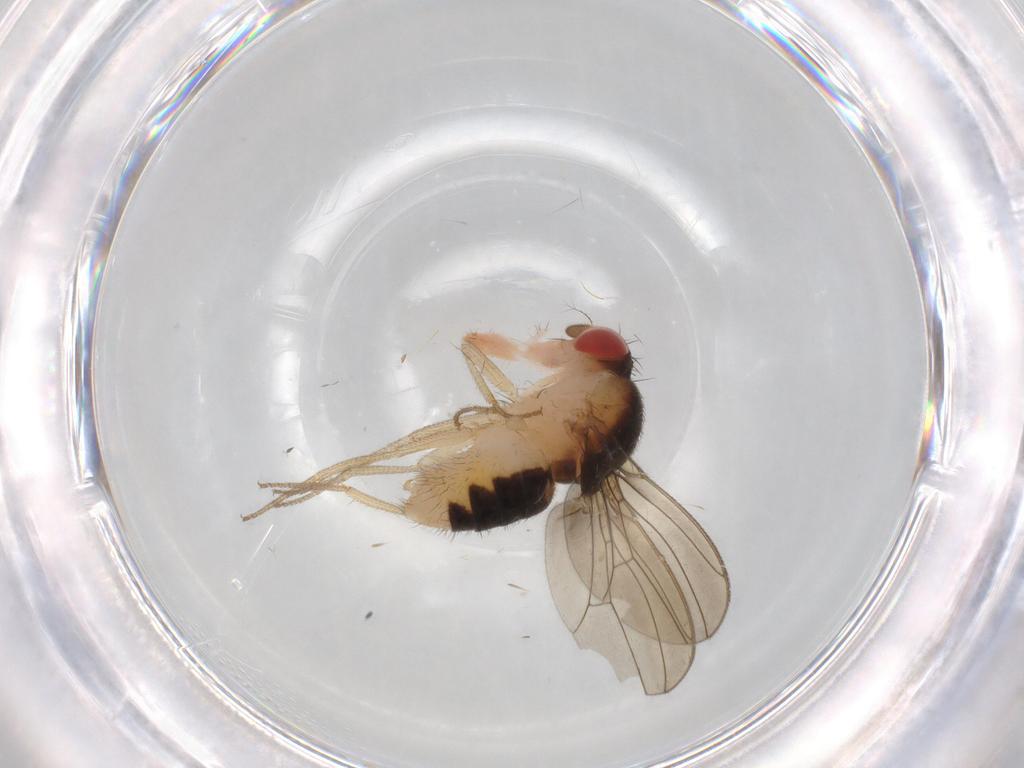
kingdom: Animalia
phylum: Arthropoda
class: Insecta
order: Diptera
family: Drosophilidae
